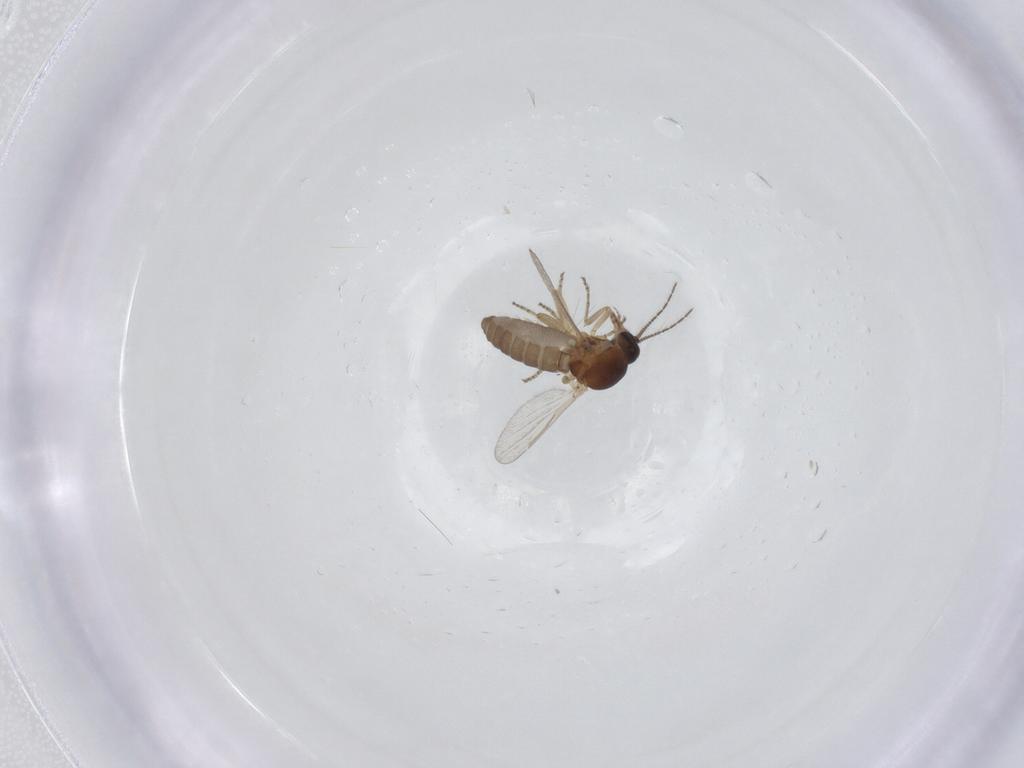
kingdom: Animalia
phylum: Arthropoda
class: Insecta
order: Diptera
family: Ceratopogonidae
